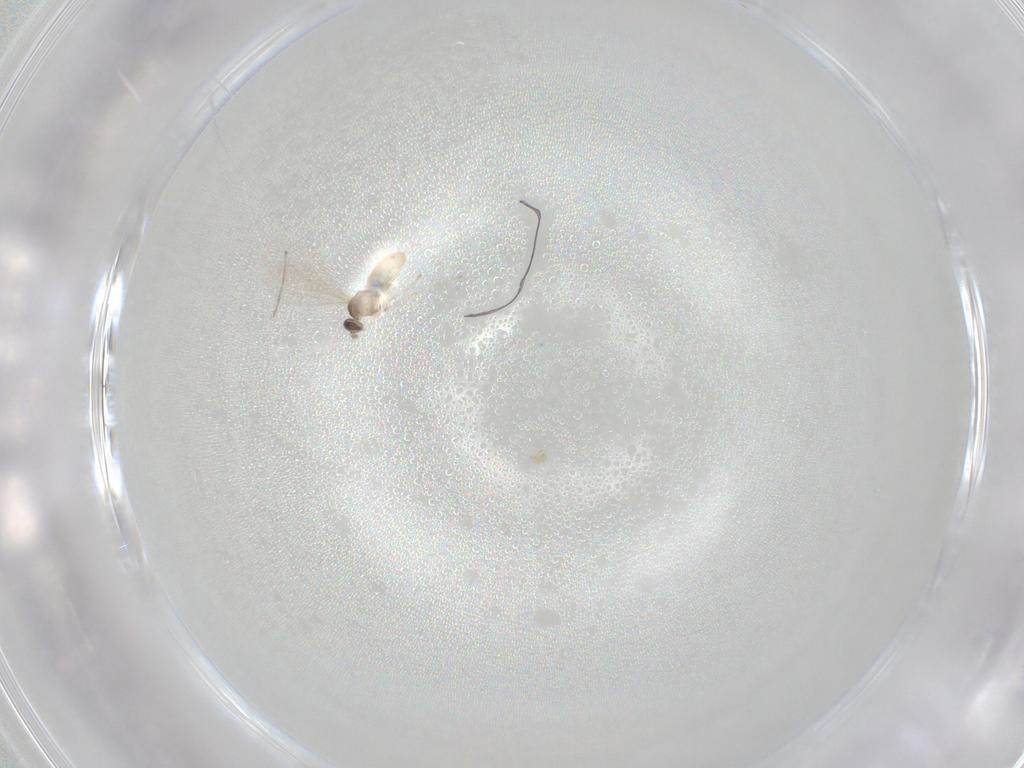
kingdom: Animalia
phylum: Arthropoda
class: Insecta
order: Diptera
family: Cecidomyiidae
